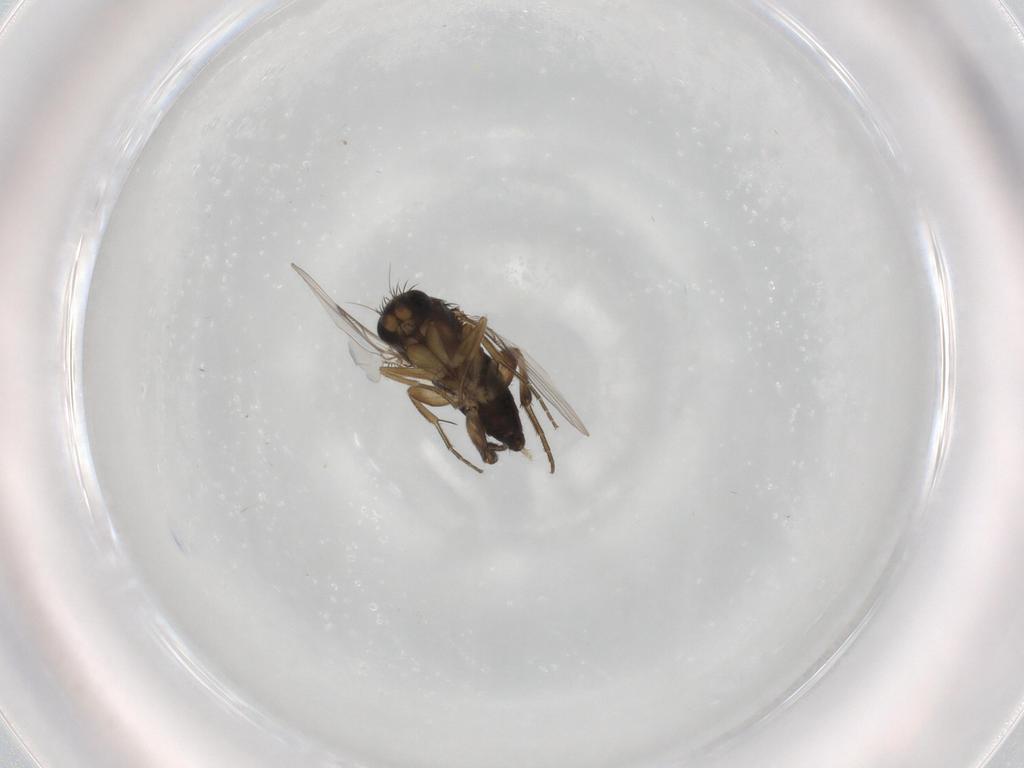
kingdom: Animalia
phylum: Arthropoda
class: Insecta
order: Diptera
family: Phoridae
